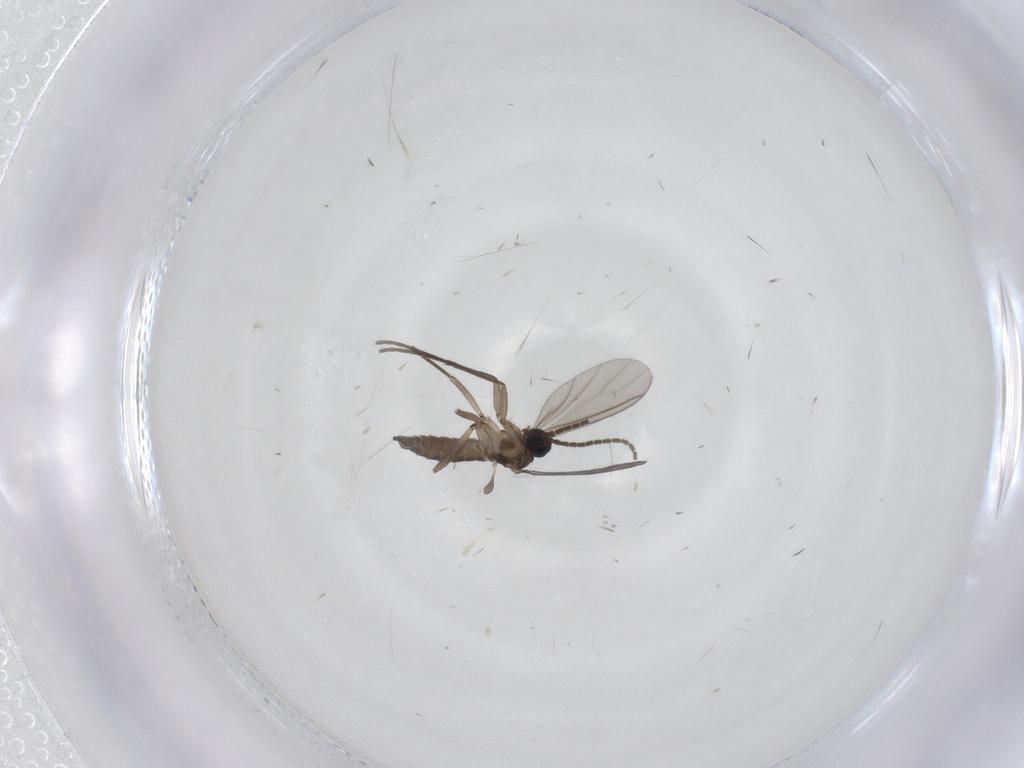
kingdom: Animalia
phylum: Arthropoda
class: Insecta
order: Diptera
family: Sciaridae
